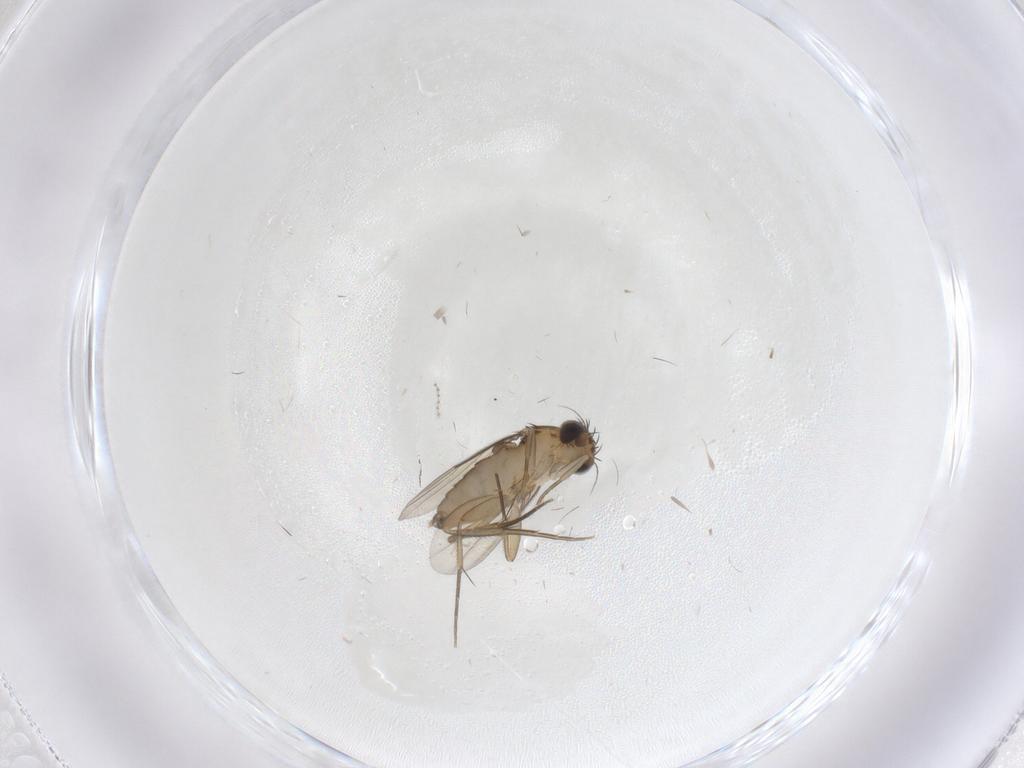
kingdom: Animalia
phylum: Arthropoda
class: Insecta
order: Diptera
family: Phoridae
